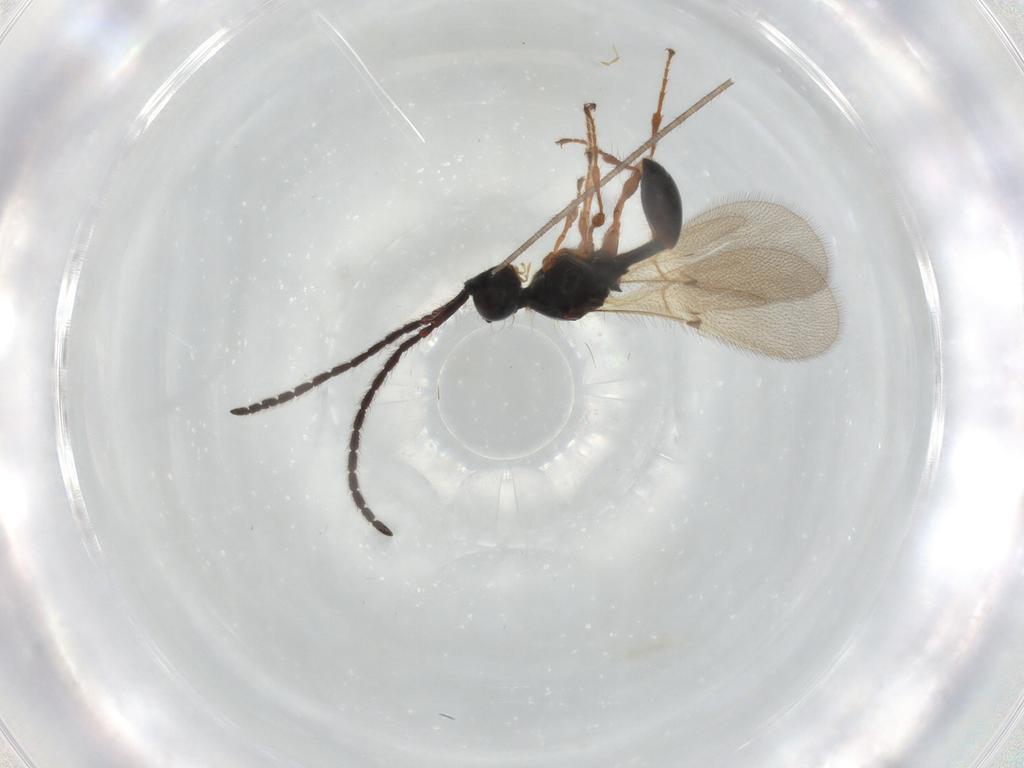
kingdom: Animalia
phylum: Arthropoda
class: Insecta
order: Hymenoptera
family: Diapriidae
